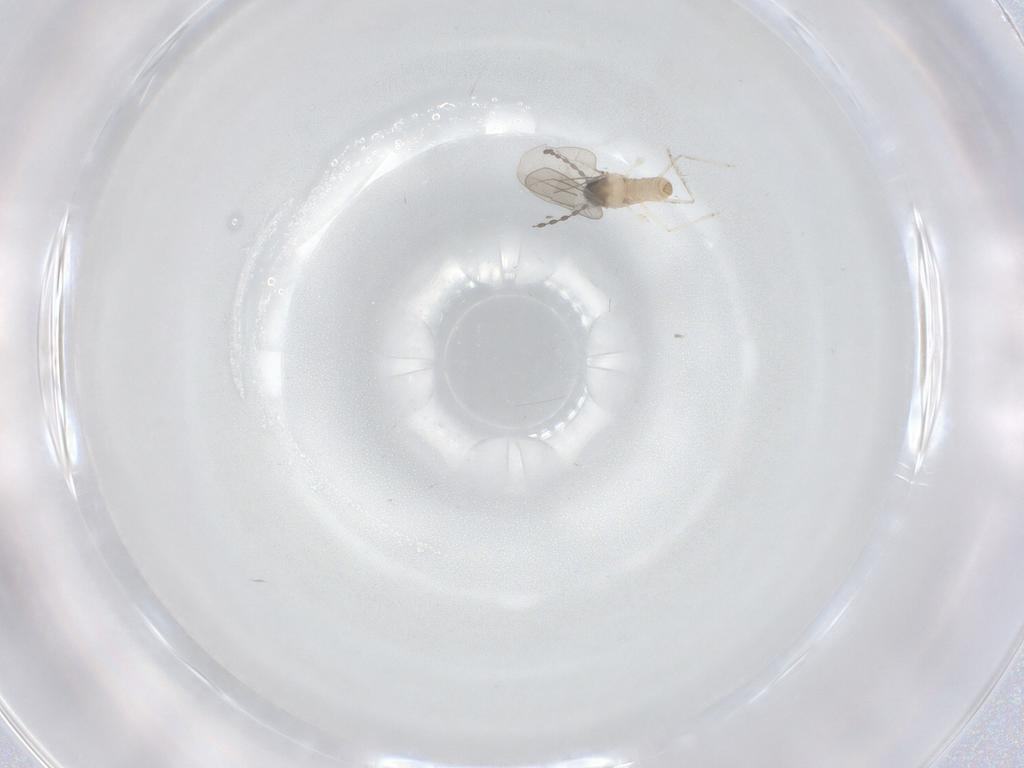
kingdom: Animalia
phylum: Arthropoda
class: Insecta
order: Diptera
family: Cecidomyiidae
